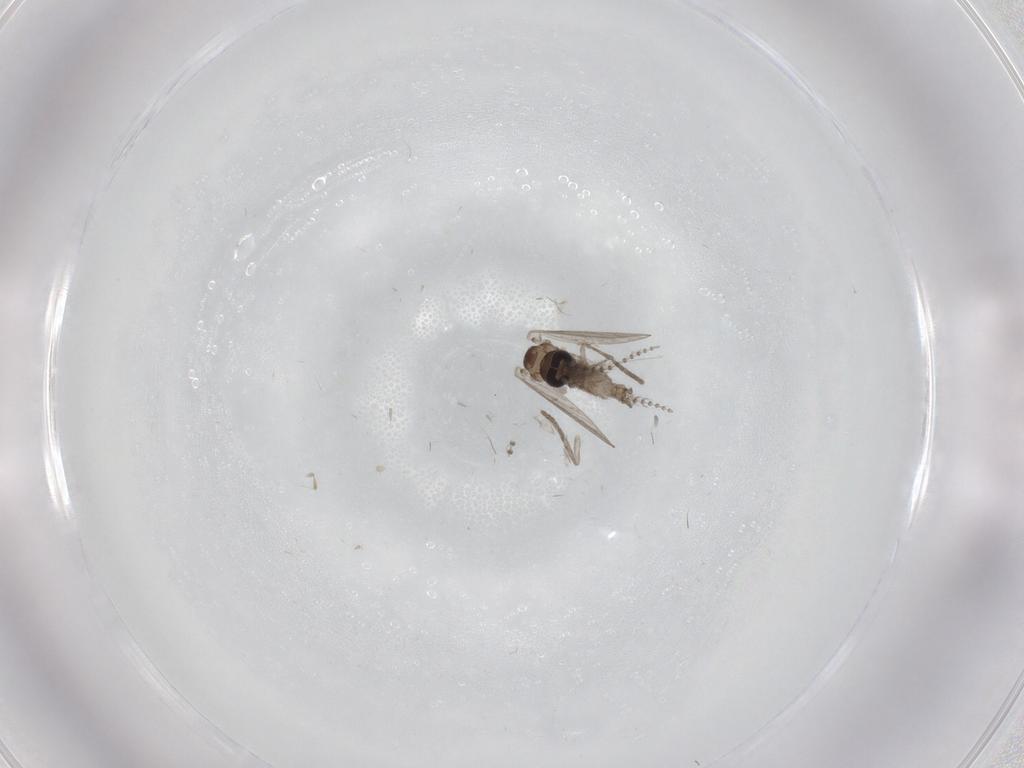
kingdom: Animalia
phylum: Arthropoda
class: Insecta
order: Diptera
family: Psychodidae
